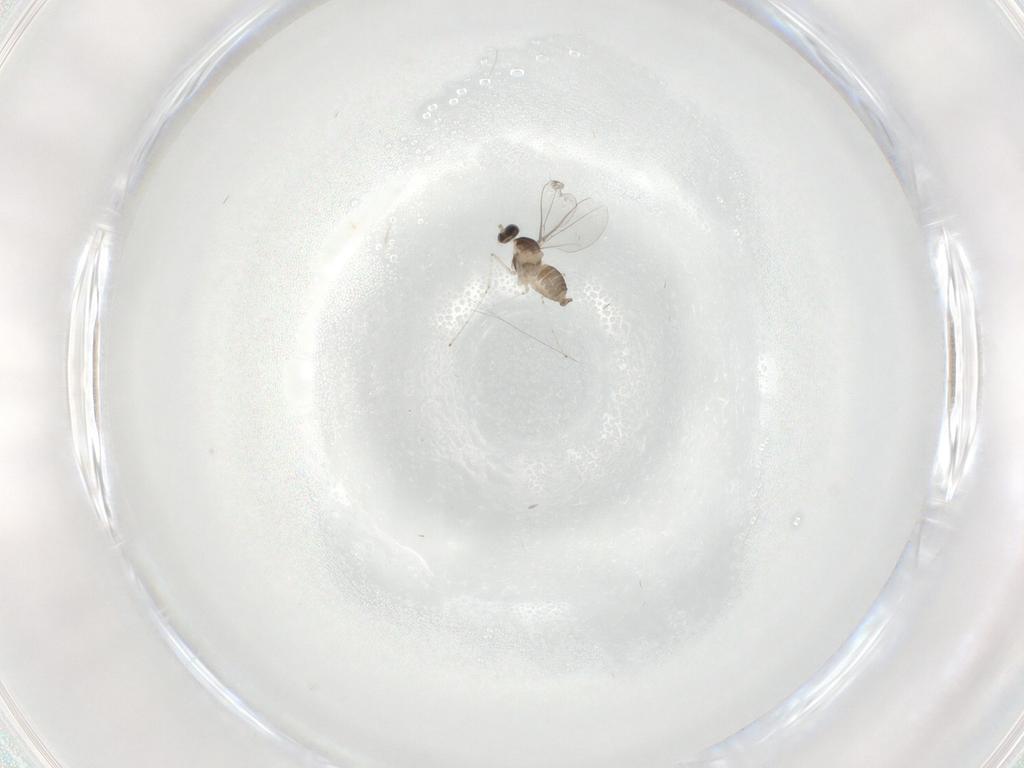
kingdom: Animalia
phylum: Arthropoda
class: Insecta
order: Diptera
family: Cecidomyiidae
